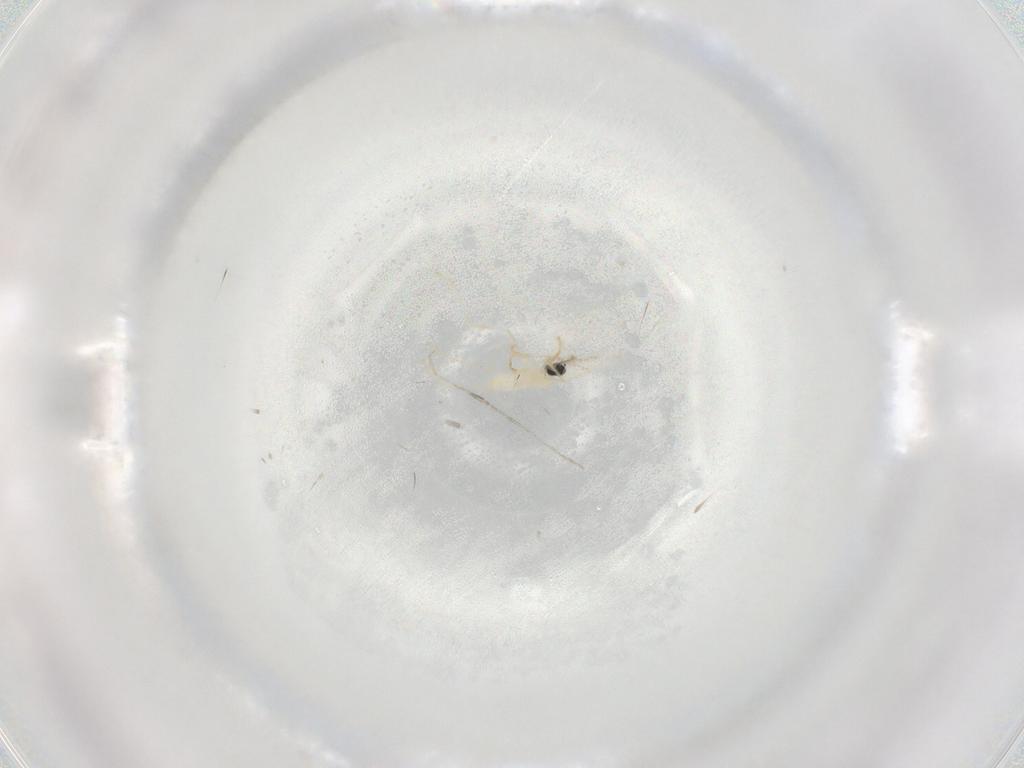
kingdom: Animalia
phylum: Arthropoda
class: Insecta
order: Diptera
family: Cecidomyiidae
